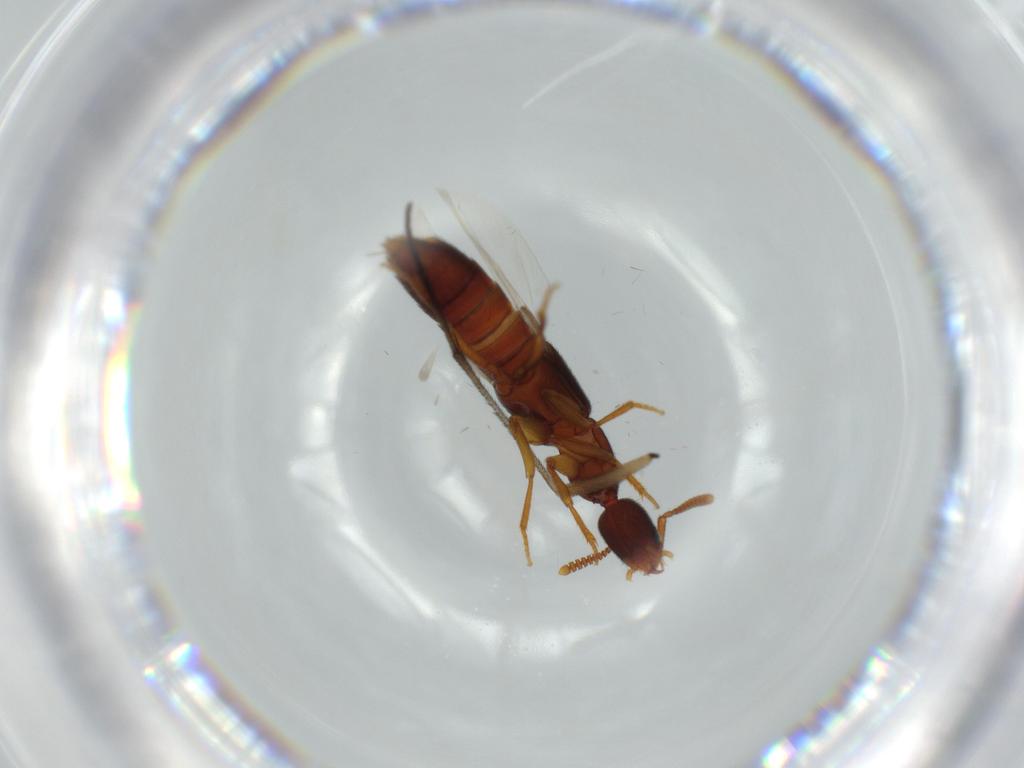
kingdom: Animalia
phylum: Arthropoda
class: Insecta
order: Coleoptera
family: Staphylinidae
